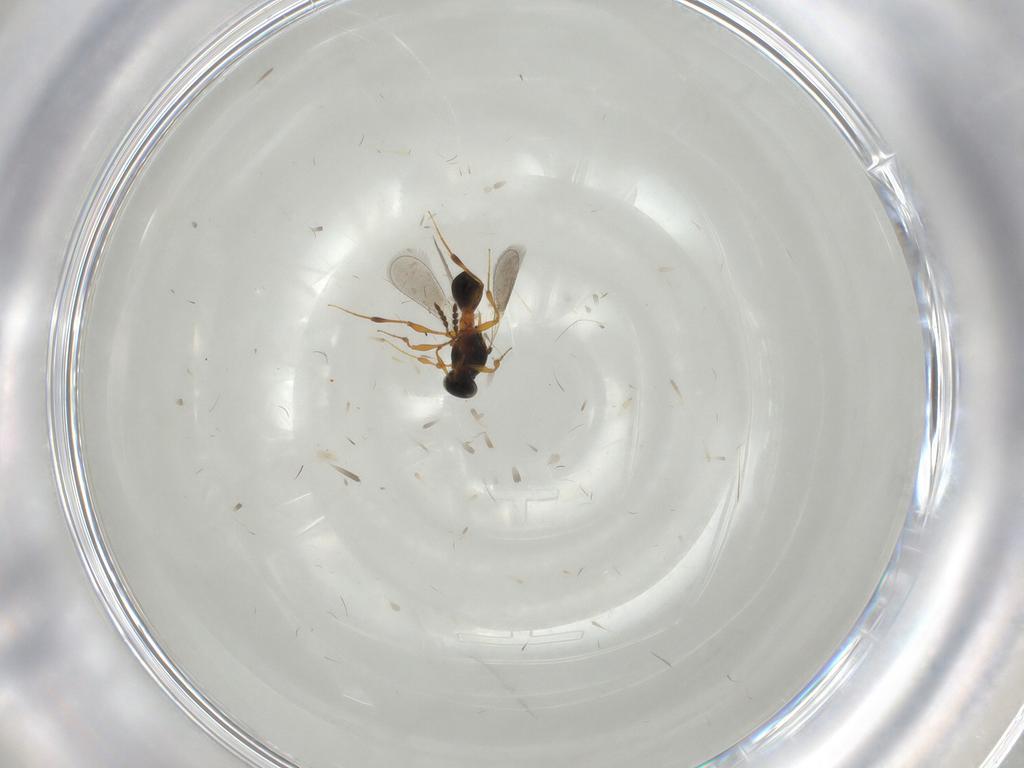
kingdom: Animalia
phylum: Arthropoda
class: Insecta
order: Hymenoptera
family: Platygastridae
